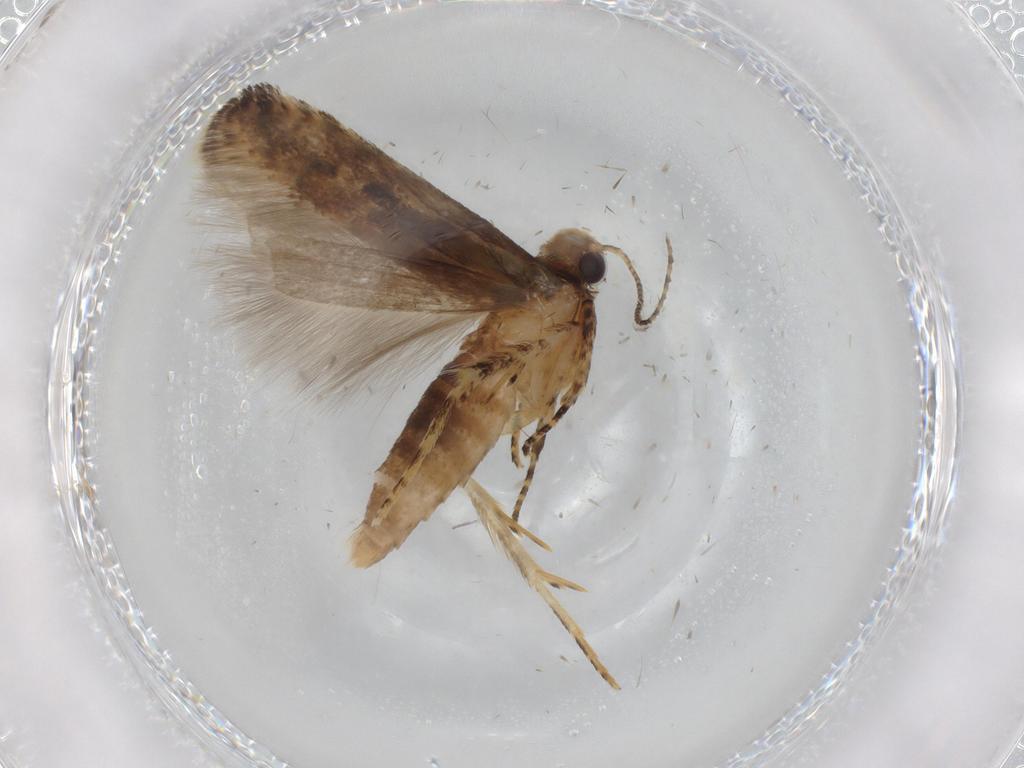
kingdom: Animalia
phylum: Arthropoda
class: Insecta
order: Lepidoptera
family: Tineidae
